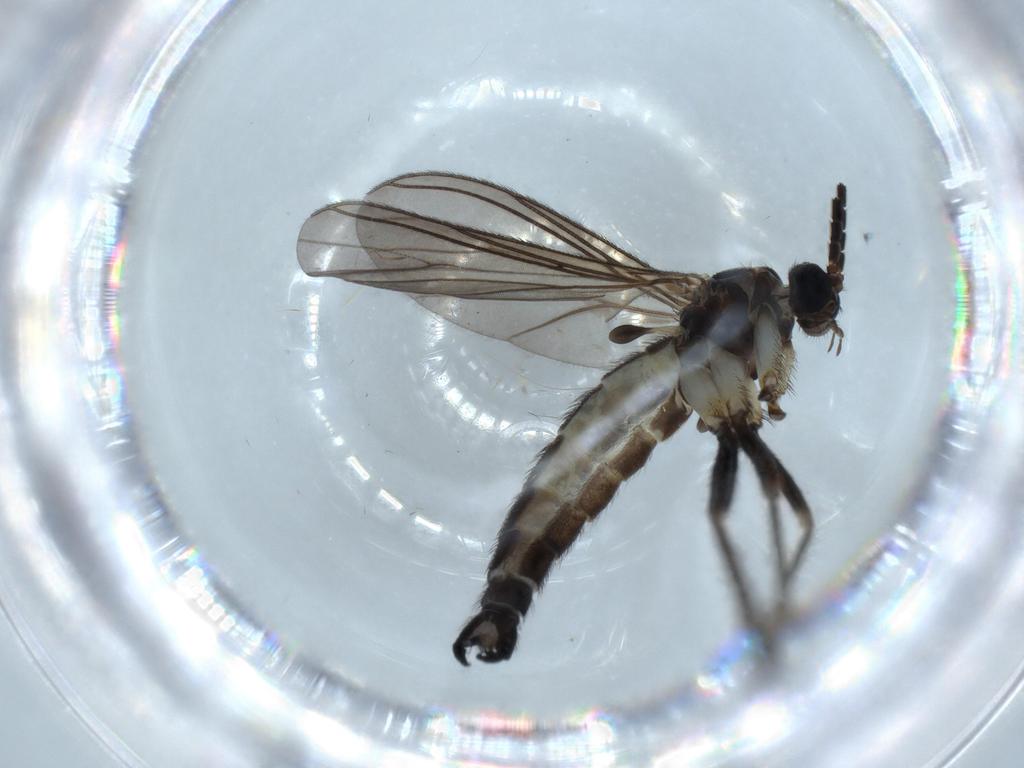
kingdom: Animalia
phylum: Arthropoda
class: Insecta
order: Diptera
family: Sciaridae
